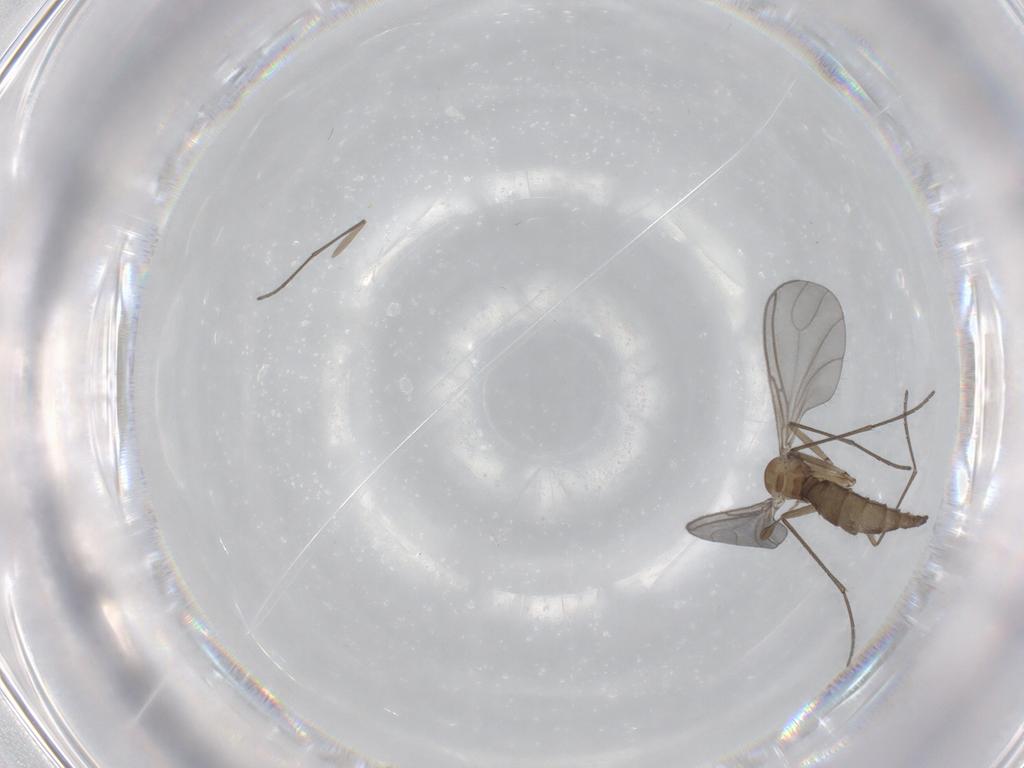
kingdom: Animalia
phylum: Arthropoda
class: Insecta
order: Diptera
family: Sciaridae
